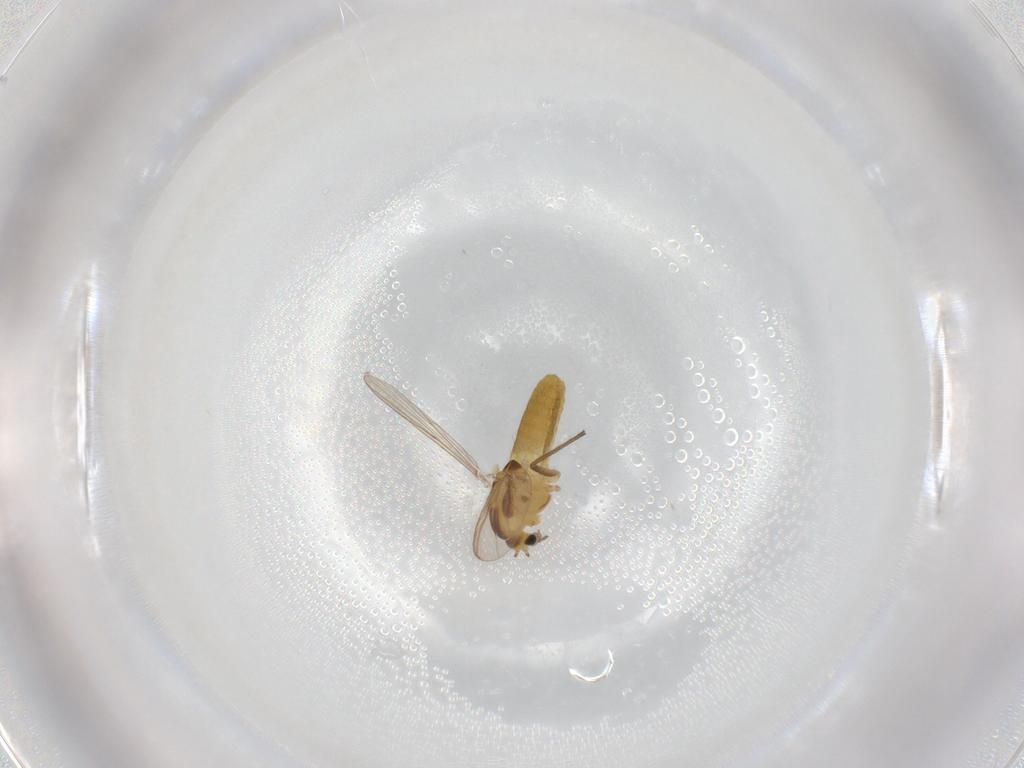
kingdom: Animalia
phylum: Arthropoda
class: Insecta
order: Diptera
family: Chironomidae
